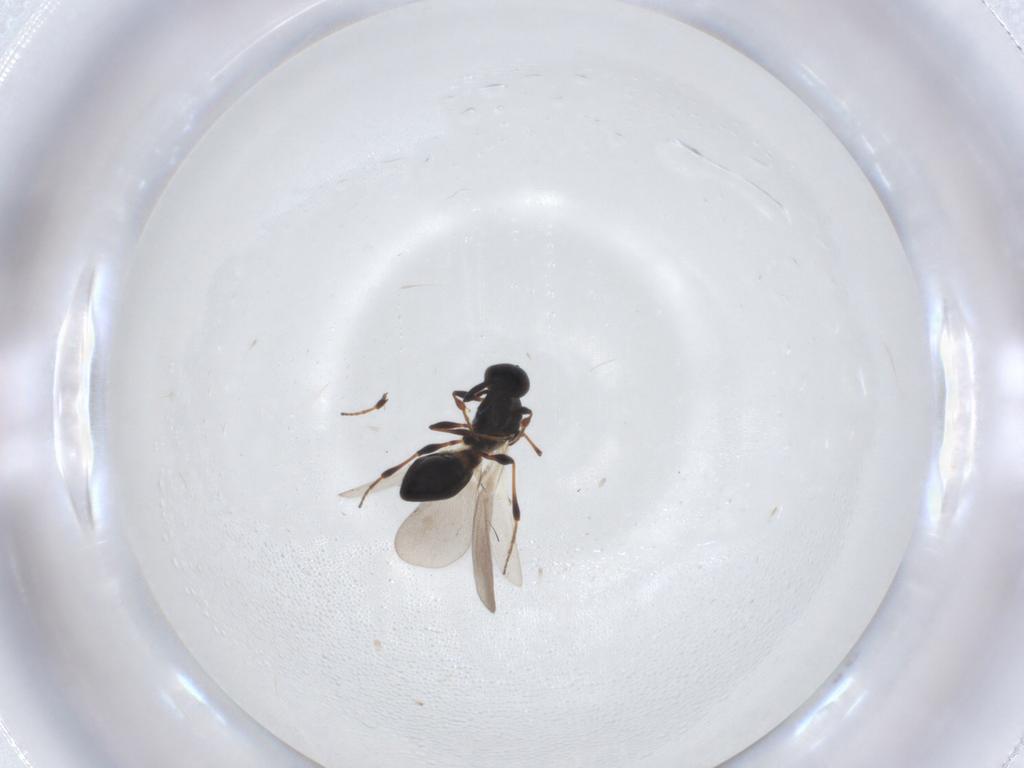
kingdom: Animalia
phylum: Arthropoda
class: Insecta
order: Hymenoptera
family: Platygastridae
